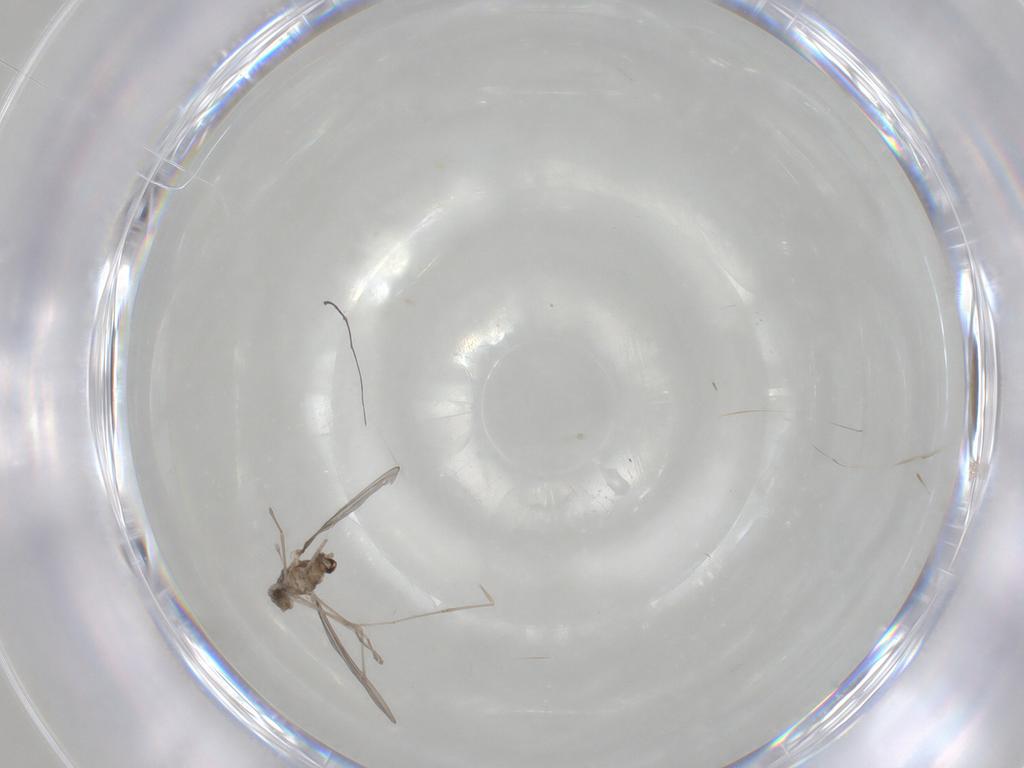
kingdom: Animalia
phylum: Arthropoda
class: Insecta
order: Diptera
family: Cecidomyiidae
